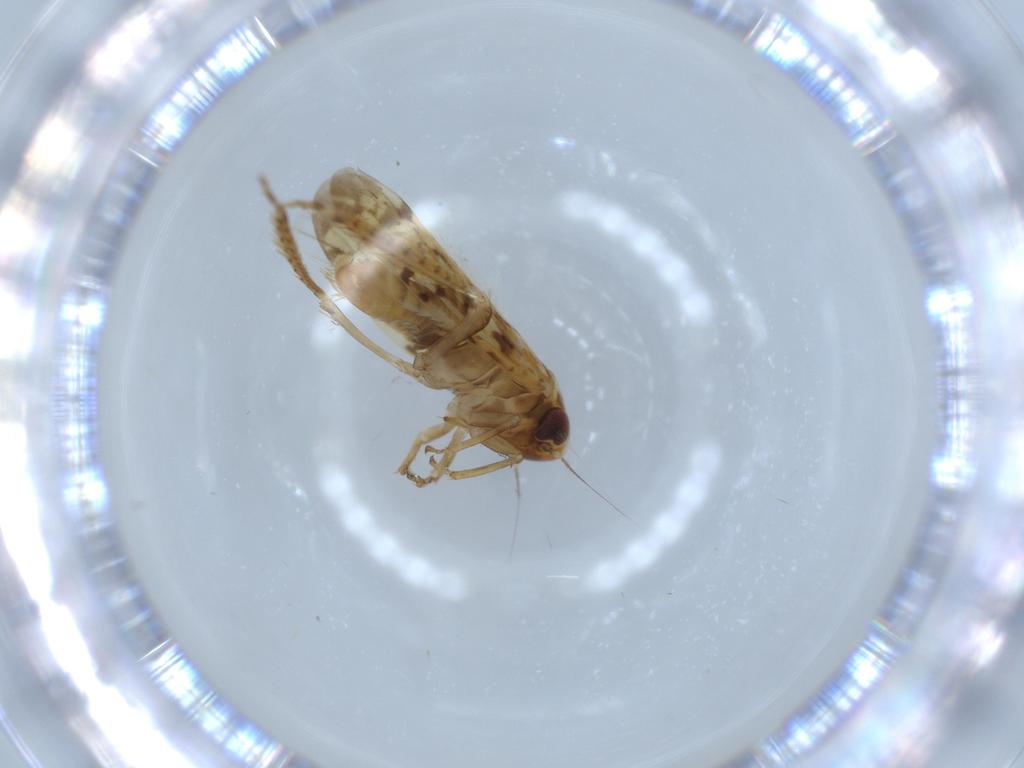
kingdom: Animalia
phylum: Arthropoda
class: Insecta
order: Hemiptera
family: Cicadellidae
